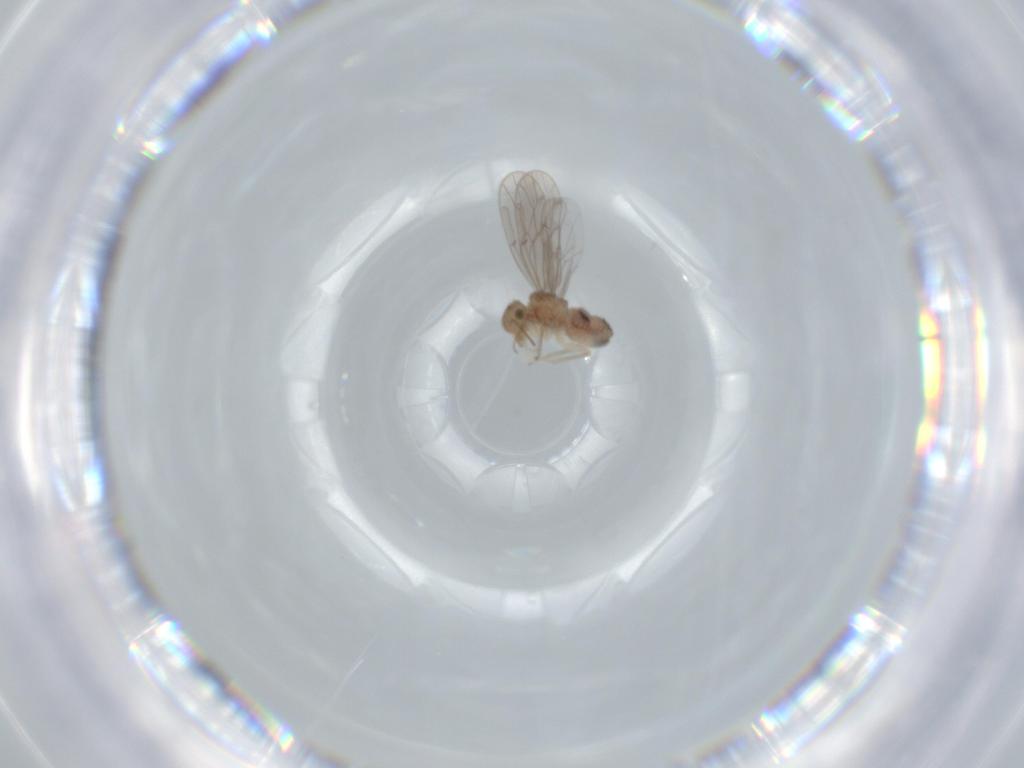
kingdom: Animalia
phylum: Arthropoda
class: Insecta
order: Psocodea
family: Ectopsocidae
